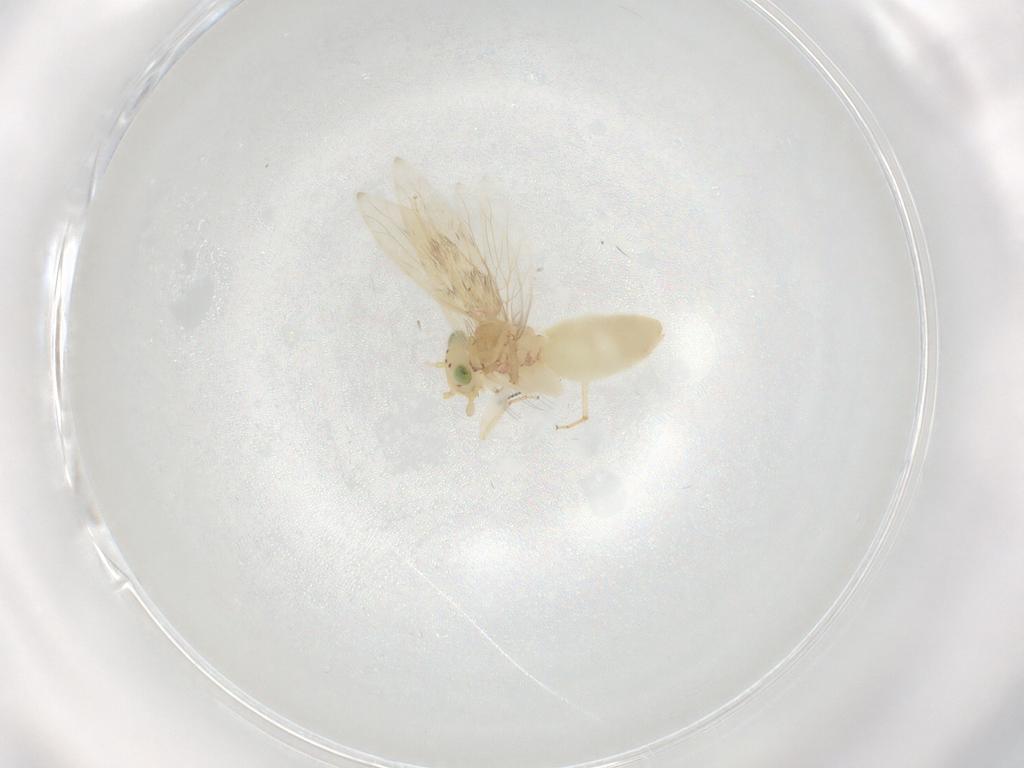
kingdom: Animalia
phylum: Arthropoda
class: Insecta
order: Psocodea
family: Lepidopsocidae
